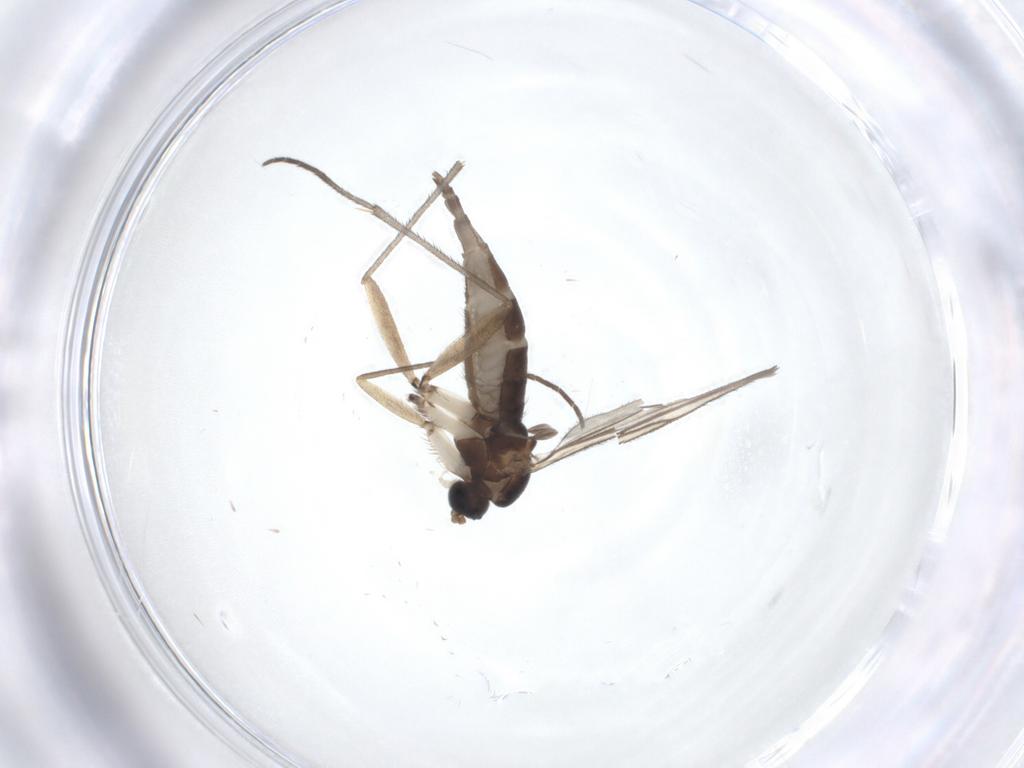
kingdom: Animalia
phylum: Arthropoda
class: Insecta
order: Diptera
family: Sciaridae
